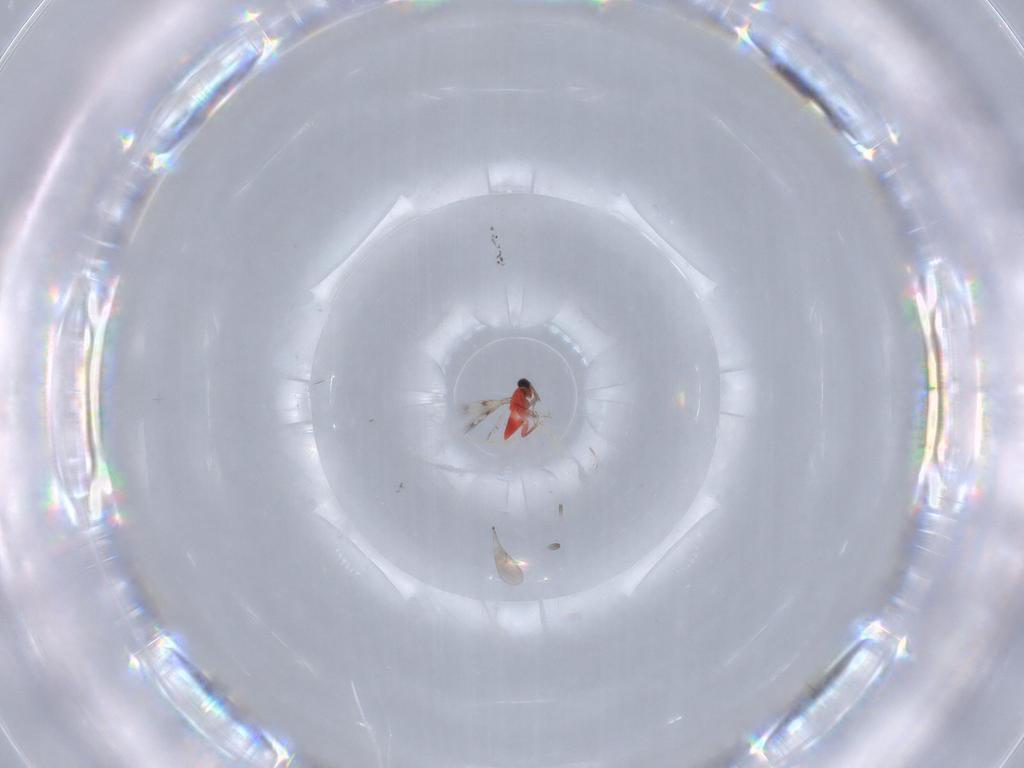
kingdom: Animalia
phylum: Arthropoda
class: Insecta
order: Hymenoptera
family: Trichogrammatidae
